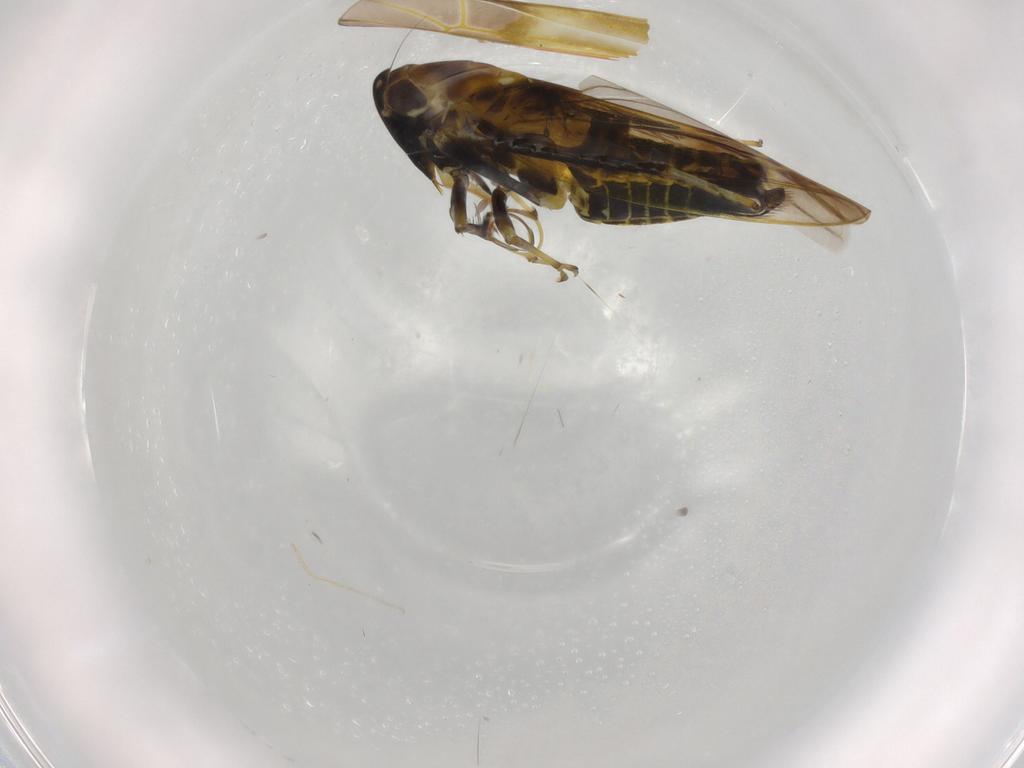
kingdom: Animalia
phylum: Arthropoda
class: Insecta
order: Hemiptera
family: Cicadellidae
